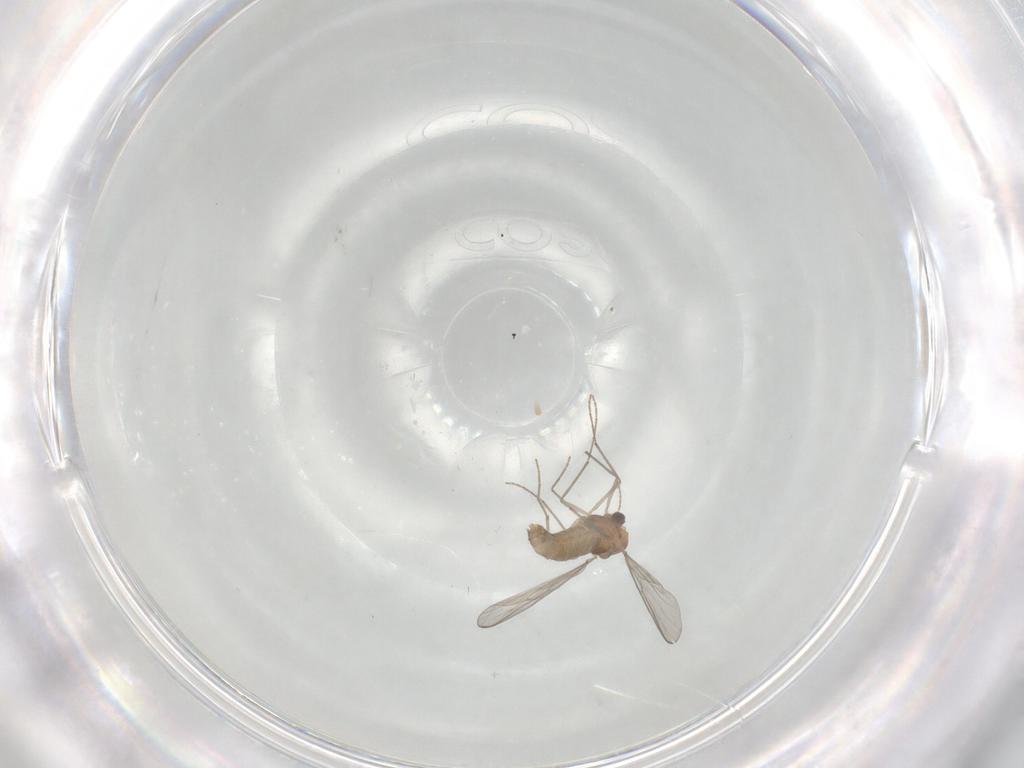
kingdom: Animalia
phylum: Arthropoda
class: Insecta
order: Diptera
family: Chironomidae
